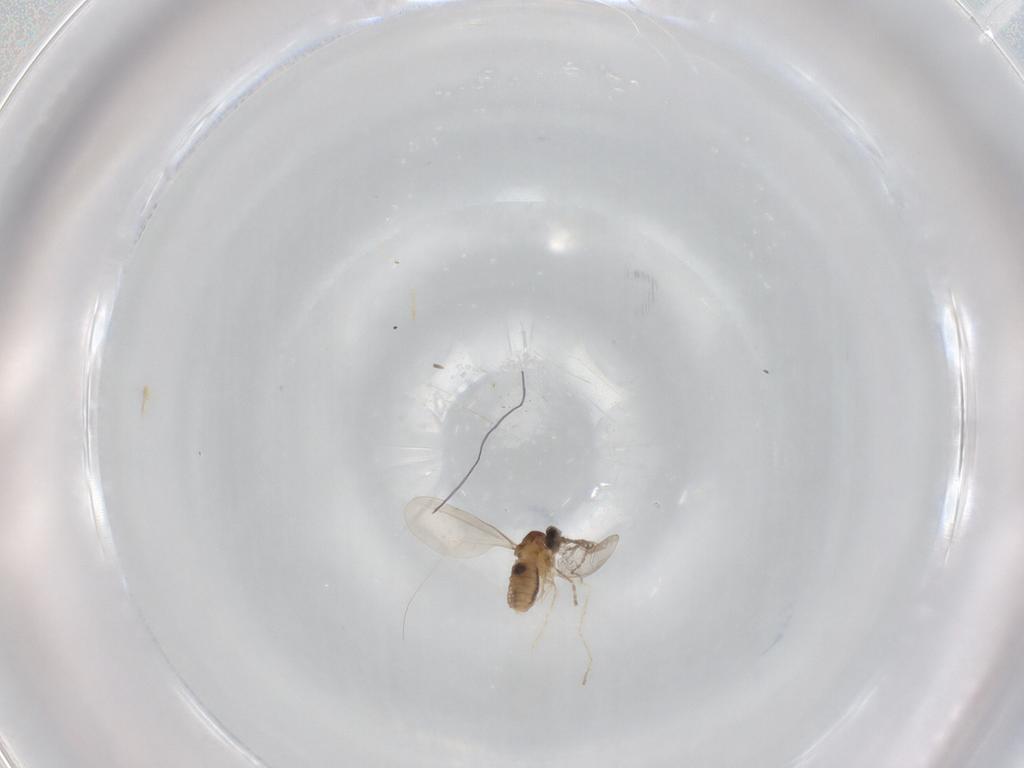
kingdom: Animalia
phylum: Arthropoda
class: Insecta
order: Diptera
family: Cecidomyiidae
